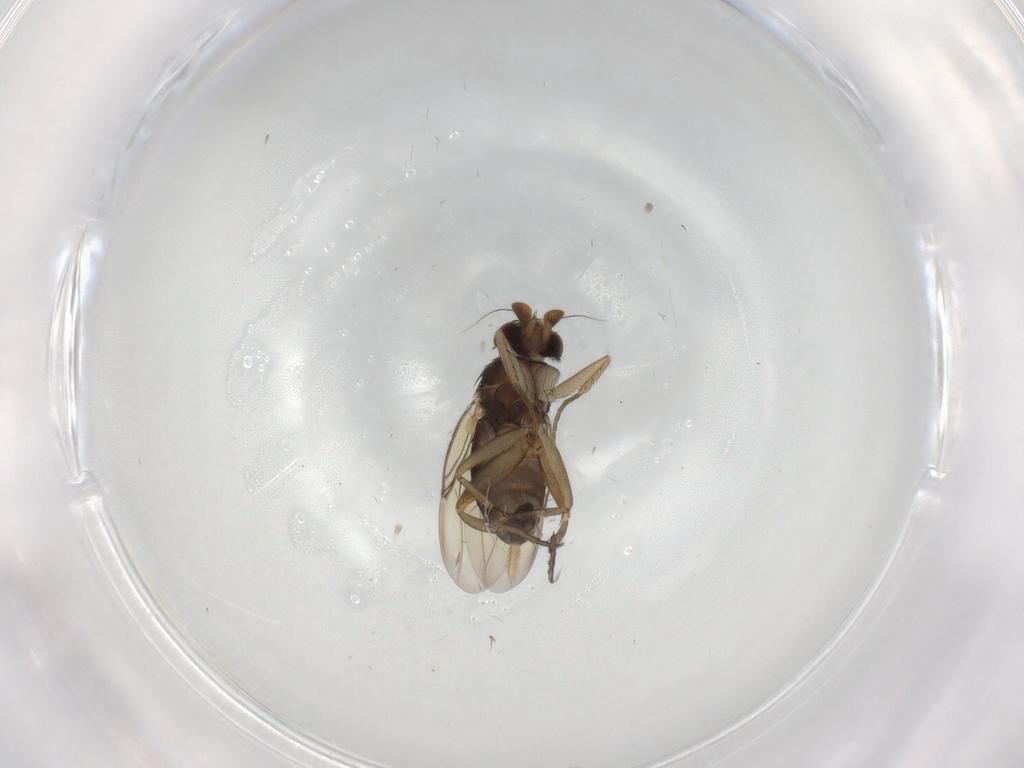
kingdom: Animalia
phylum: Arthropoda
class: Insecta
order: Diptera
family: Phoridae
